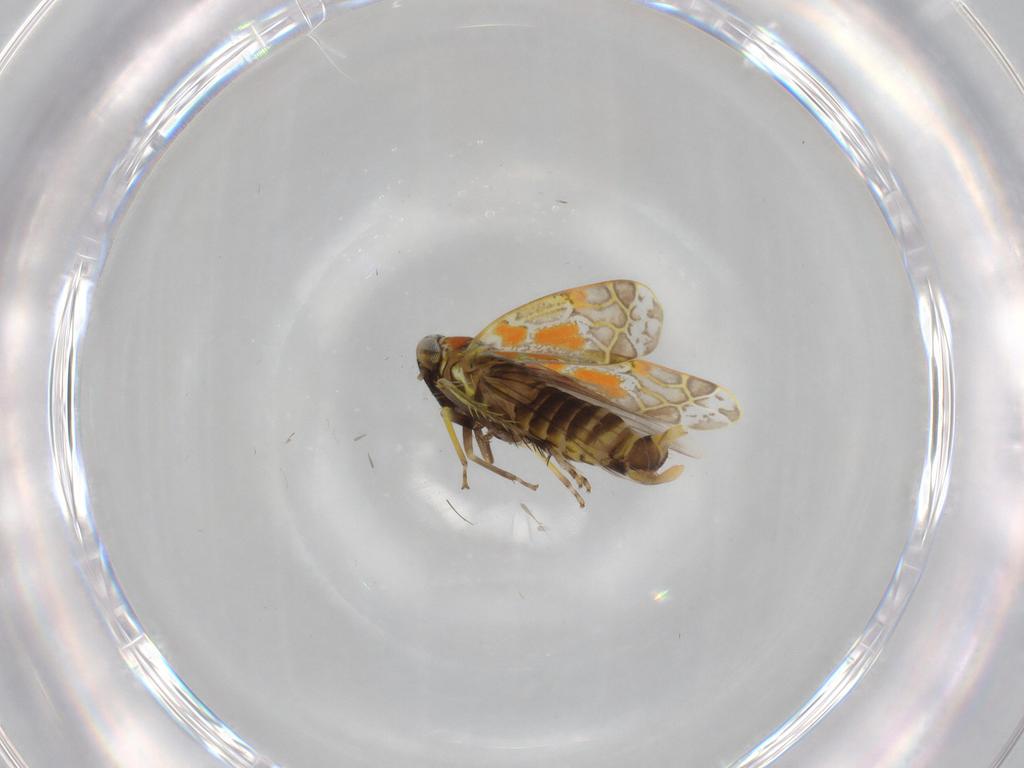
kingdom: Animalia
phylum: Arthropoda
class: Insecta
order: Hemiptera
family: Cicadellidae
